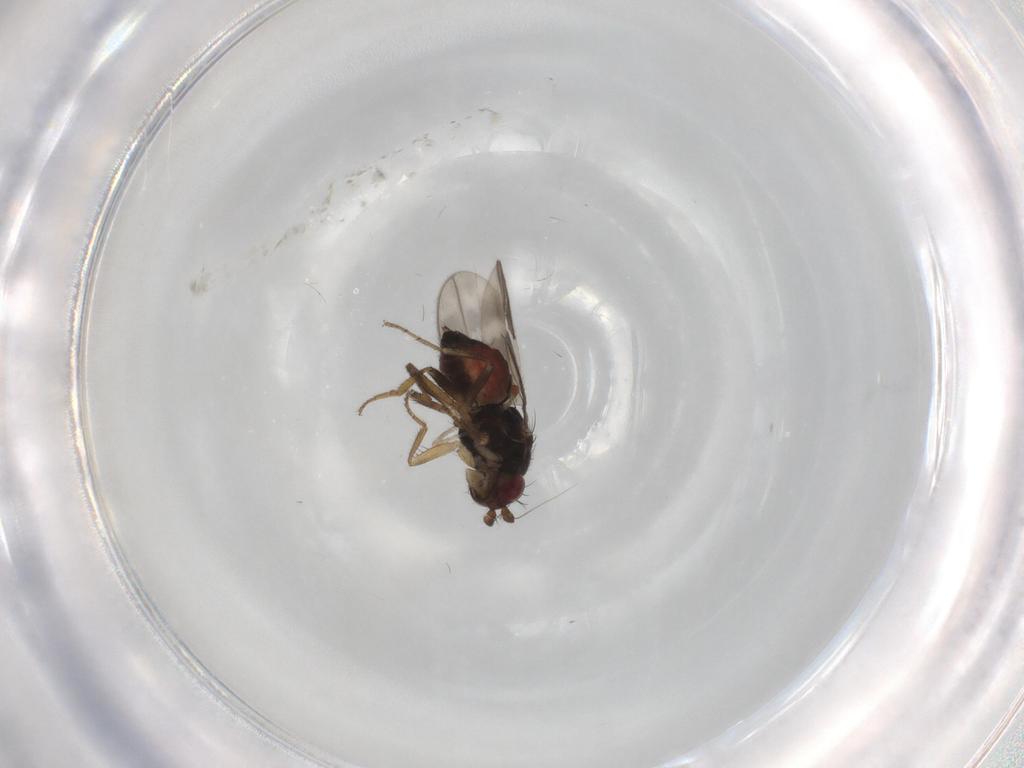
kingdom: Animalia
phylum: Arthropoda
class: Insecta
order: Diptera
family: Sphaeroceridae
